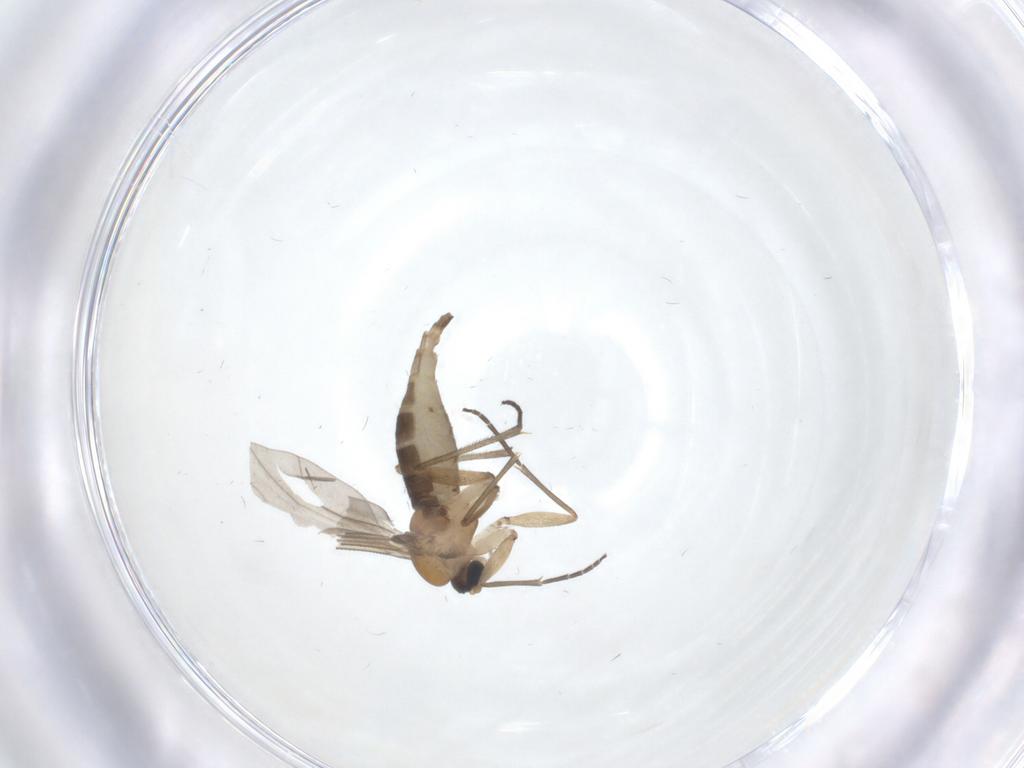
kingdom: Animalia
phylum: Arthropoda
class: Insecta
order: Diptera
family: Sciaridae
